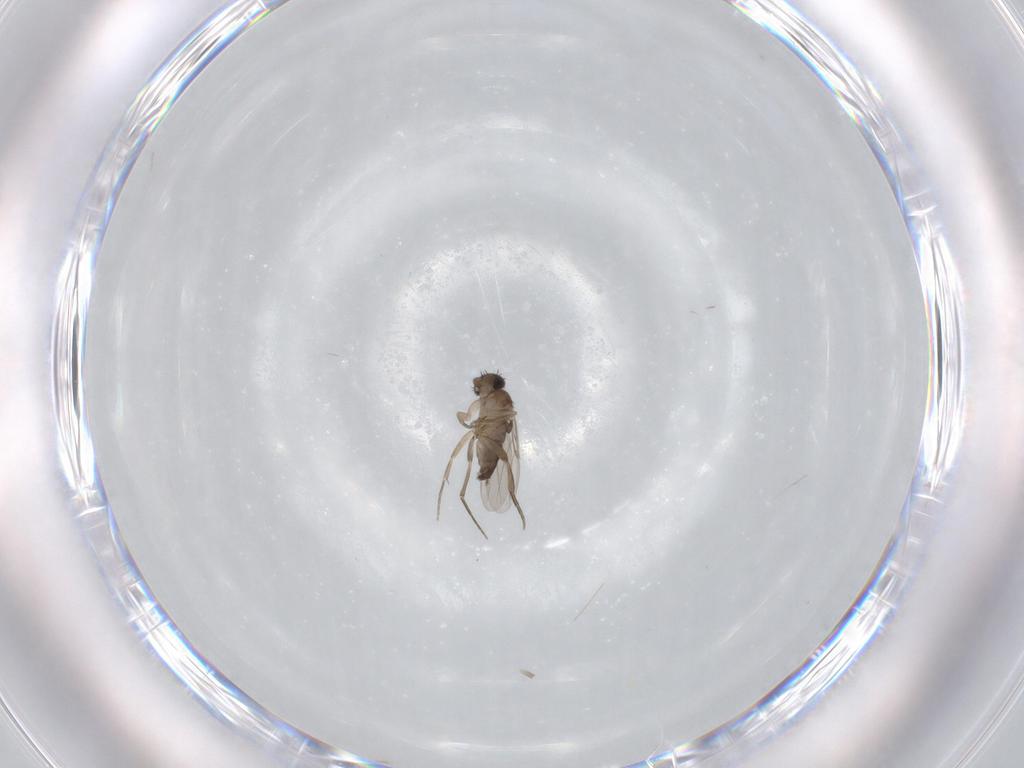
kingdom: Animalia
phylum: Arthropoda
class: Insecta
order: Diptera
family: Phoridae
